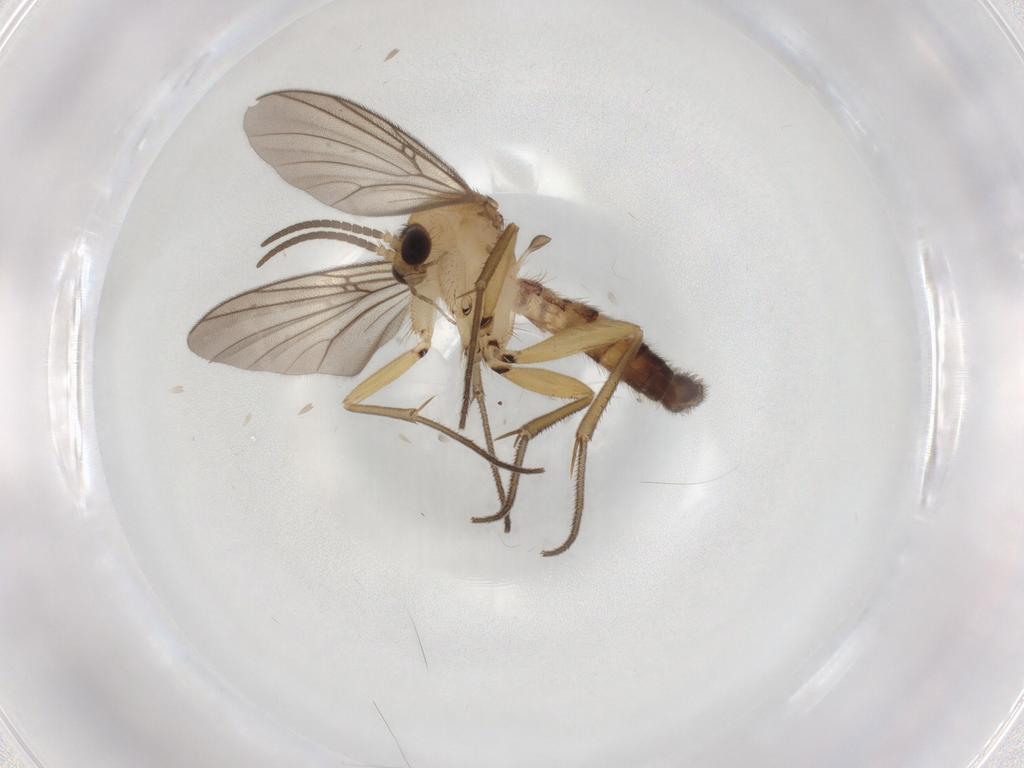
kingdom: Animalia
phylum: Arthropoda
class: Insecta
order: Diptera
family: Cecidomyiidae
